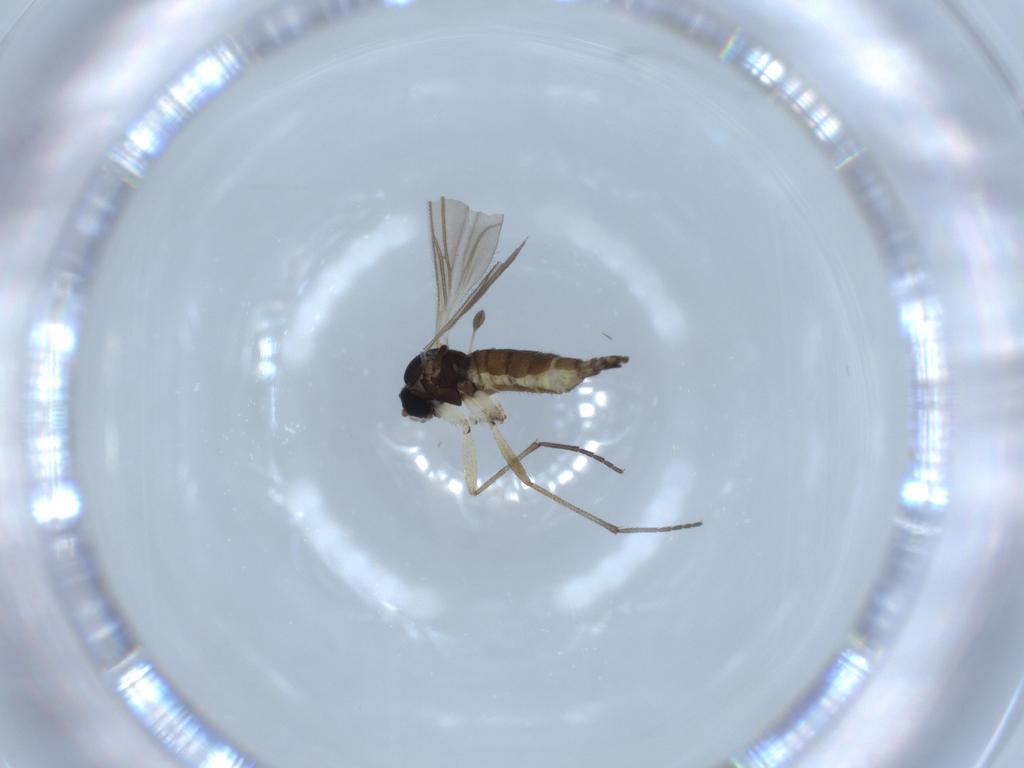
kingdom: Animalia
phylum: Arthropoda
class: Insecta
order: Diptera
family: Sciaridae
